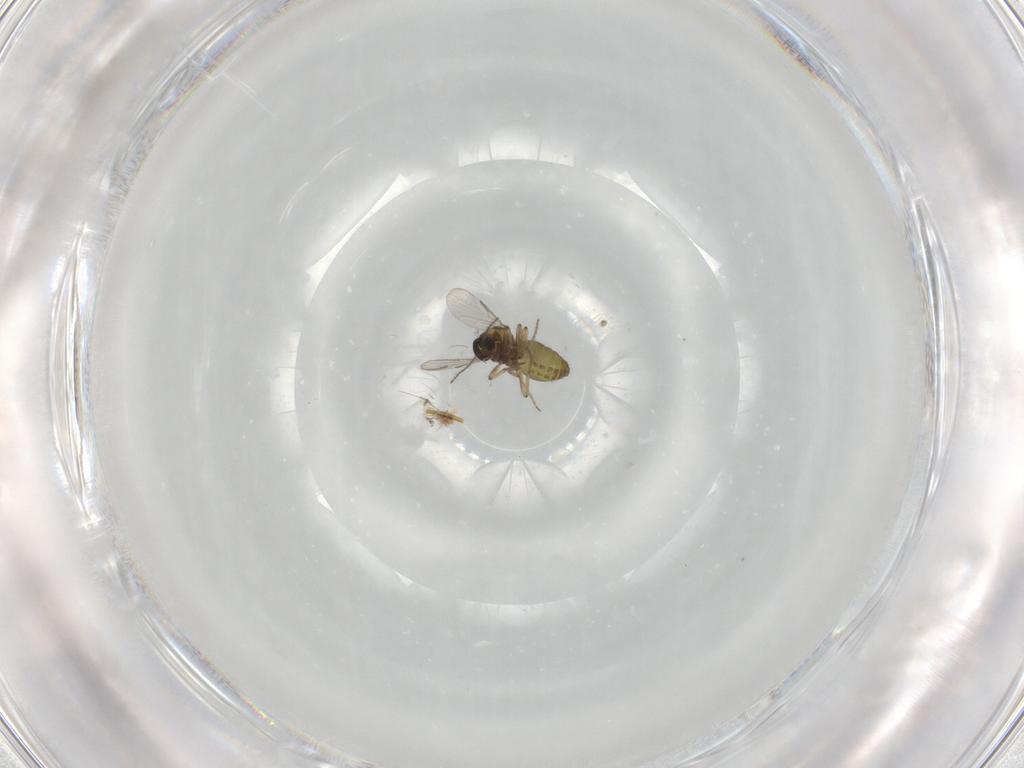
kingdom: Animalia
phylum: Arthropoda
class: Insecta
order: Diptera
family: Ceratopogonidae
